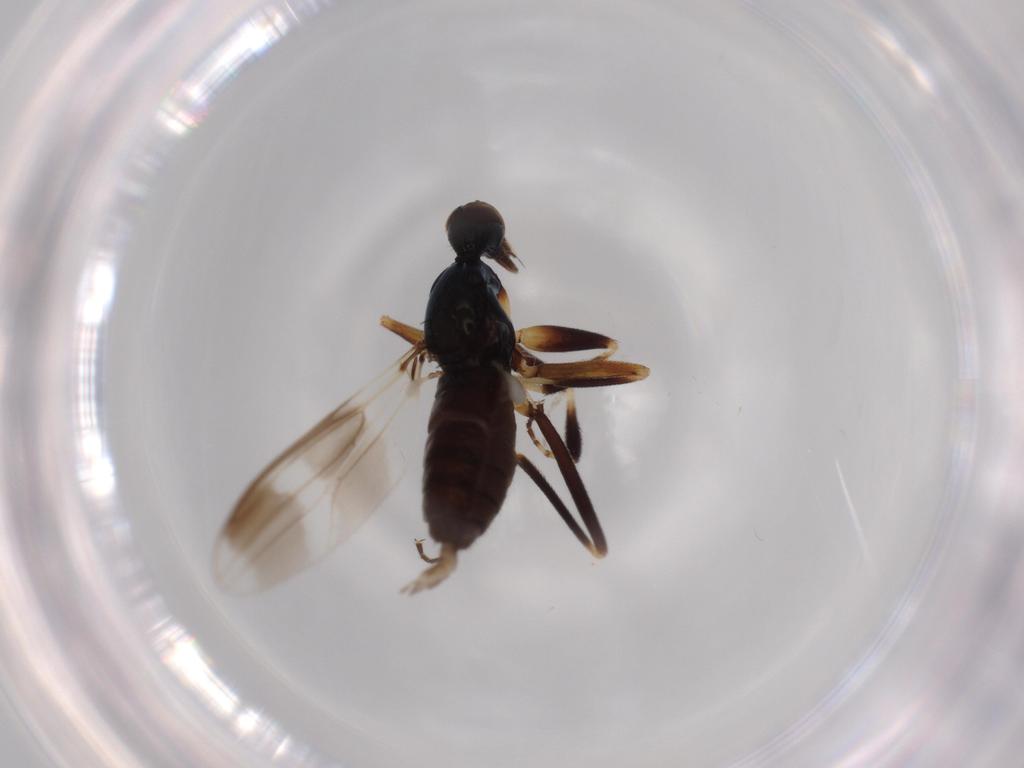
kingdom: Animalia
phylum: Arthropoda
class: Insecta
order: Diptera
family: Hybotidae
